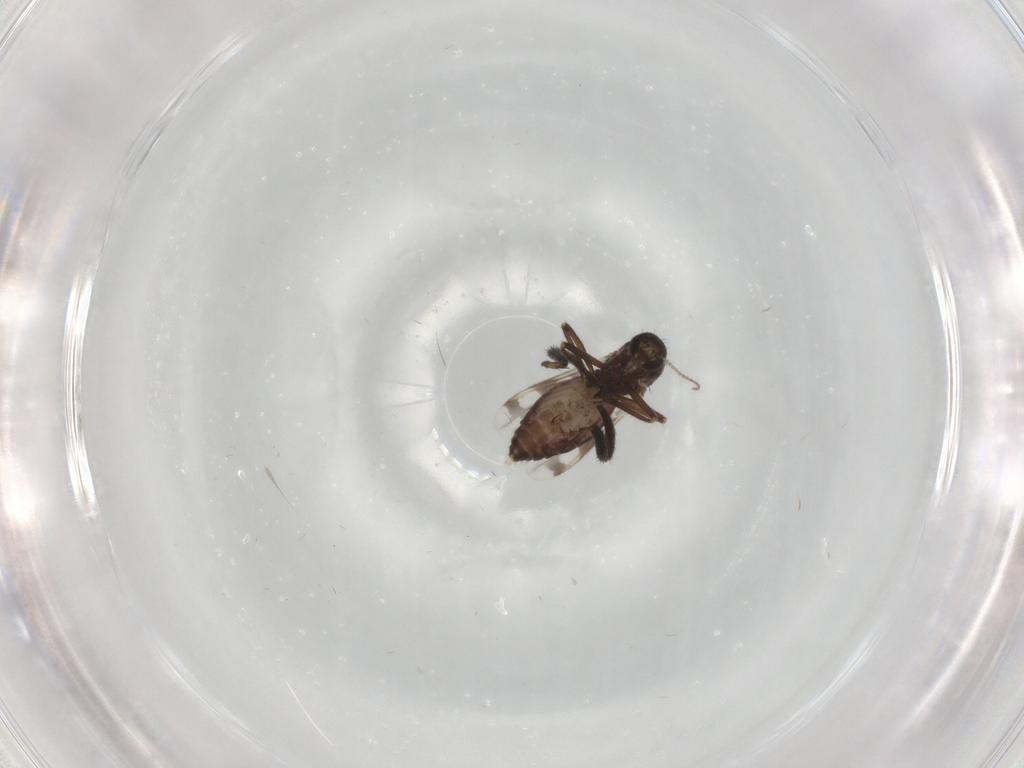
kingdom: Animalia
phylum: Arthropoda
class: Insecta
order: Diptera
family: Ceratopogonidae
